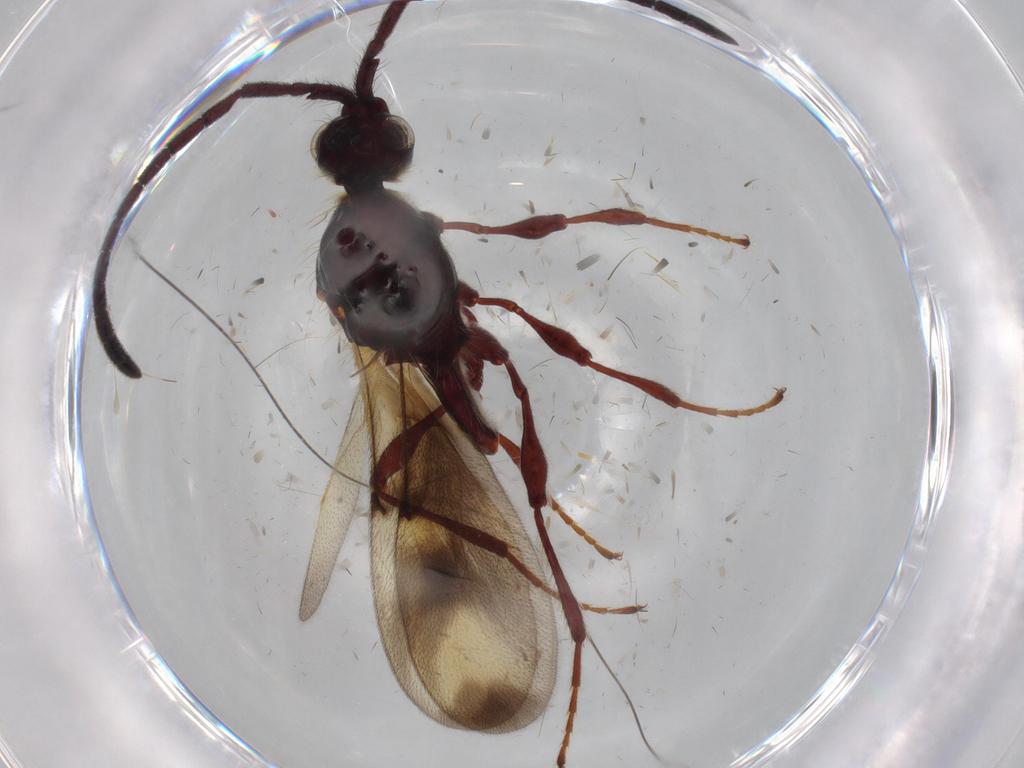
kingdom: Animalia
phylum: Arthropoda
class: Insecta
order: Hymenoptera
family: Diapriidae
